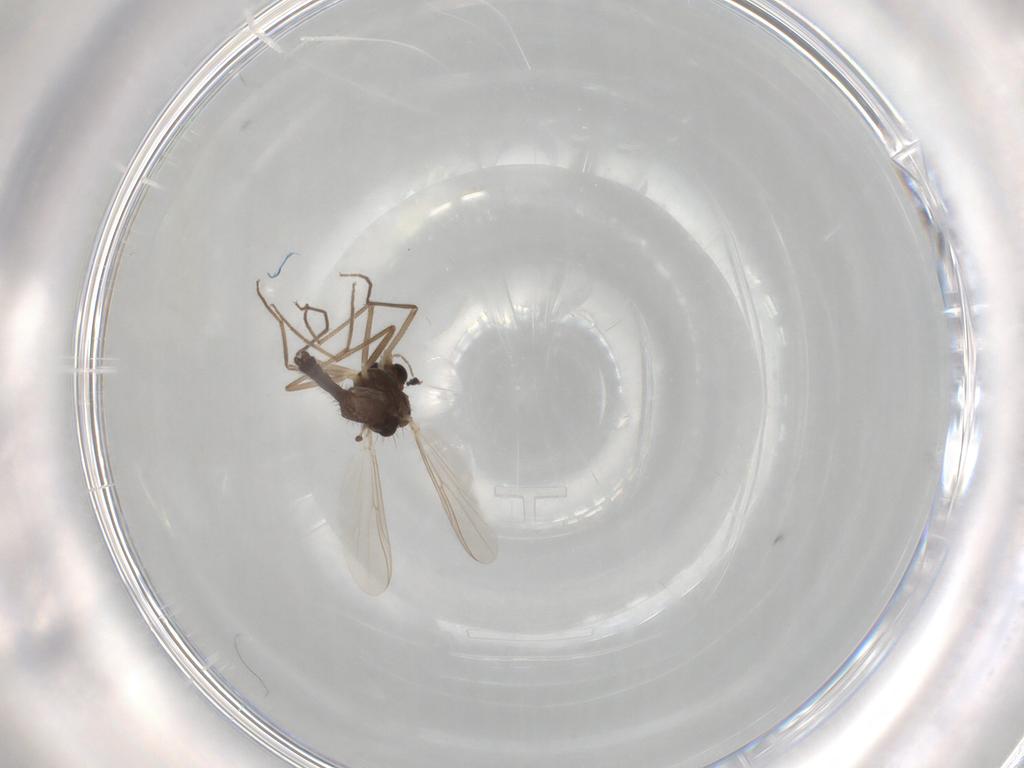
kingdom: Animalia
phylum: Arthropoda
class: Insecta
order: Diptera
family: Chironomidae
